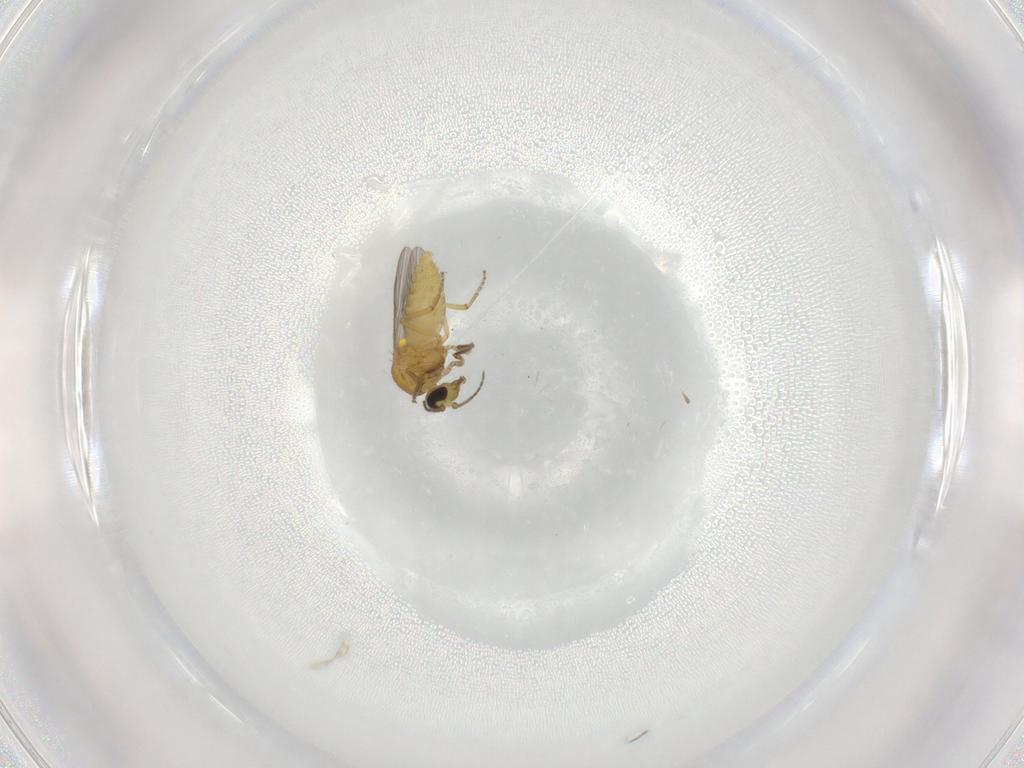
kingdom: Animalia
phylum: Arthropoda
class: Insecta
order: Diptera
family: Ceratopogonidae
